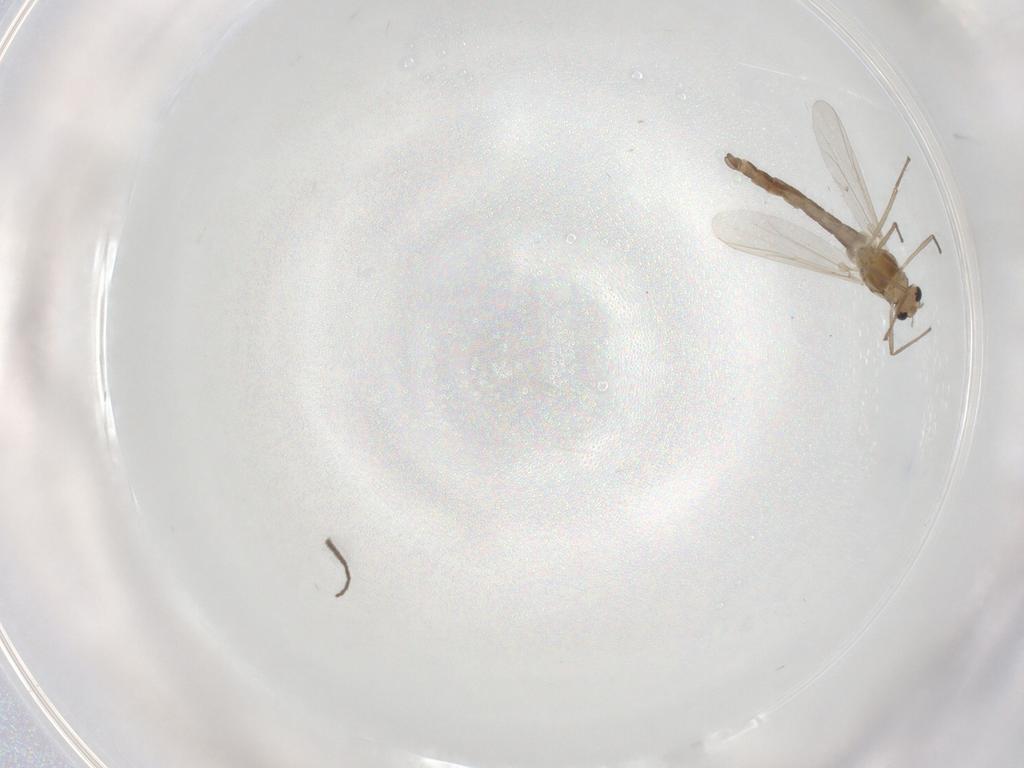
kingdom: Animalia
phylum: Arthropoda
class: Insecta
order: Diptera
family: Chironomidae
